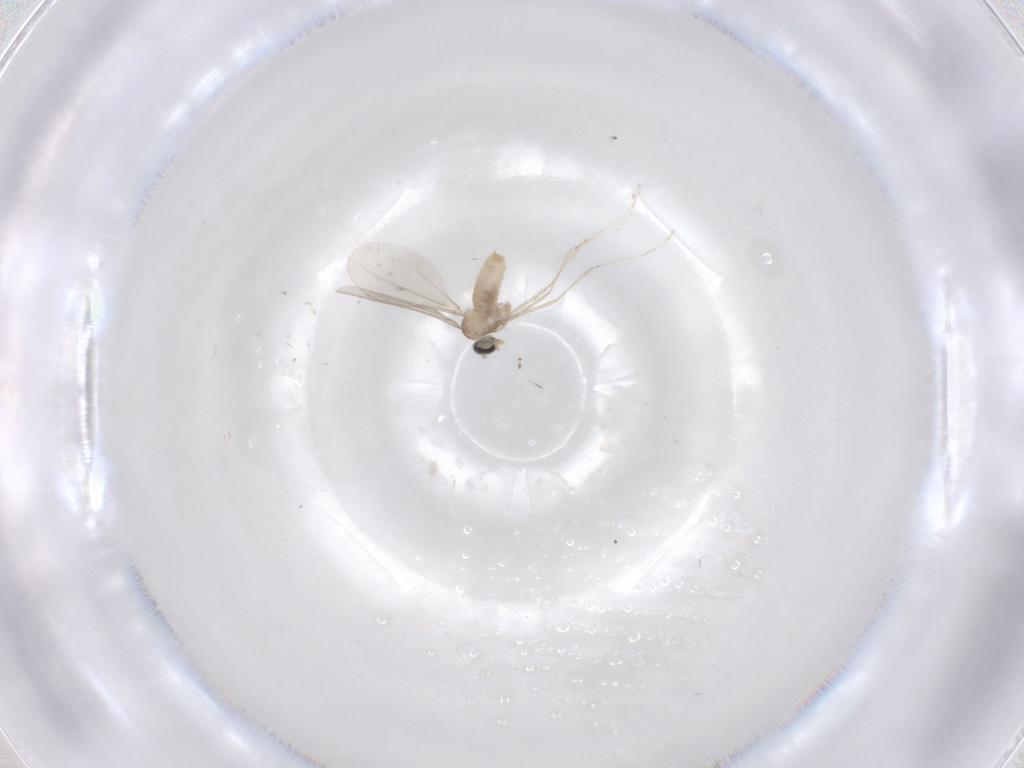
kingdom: Animalia
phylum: Arthropoda
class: Insecta
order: Diptera
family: Cecidomyiidae
